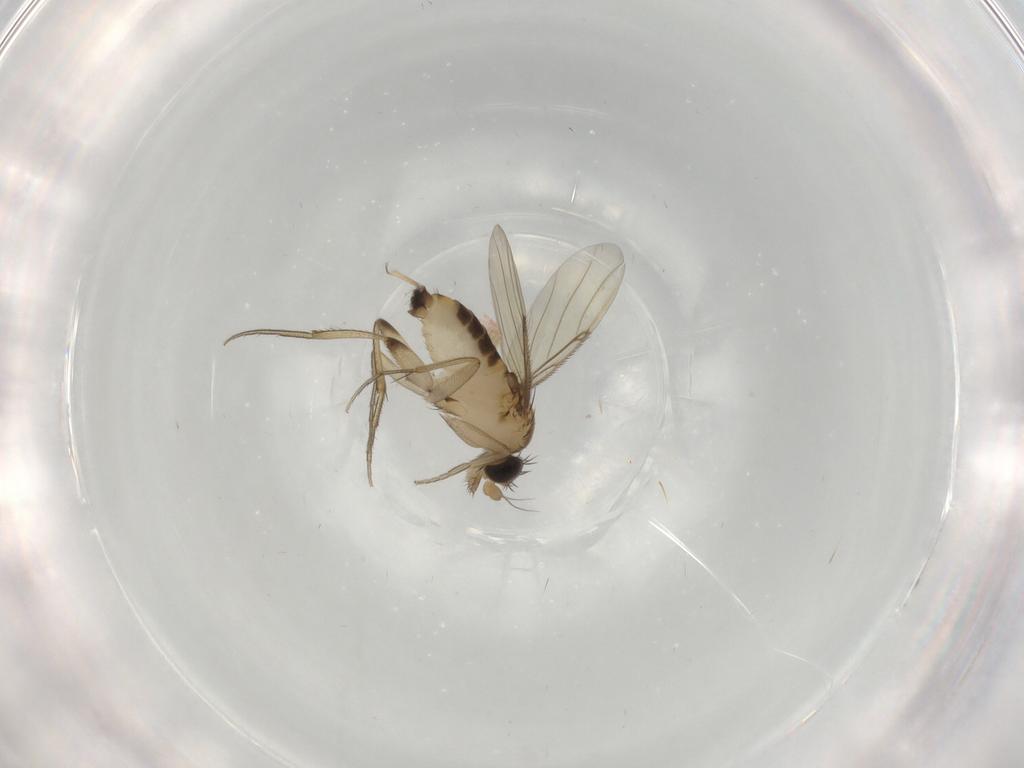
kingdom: Animalia
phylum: Arthropoda
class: Insecta
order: Diptera
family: Phoridae
